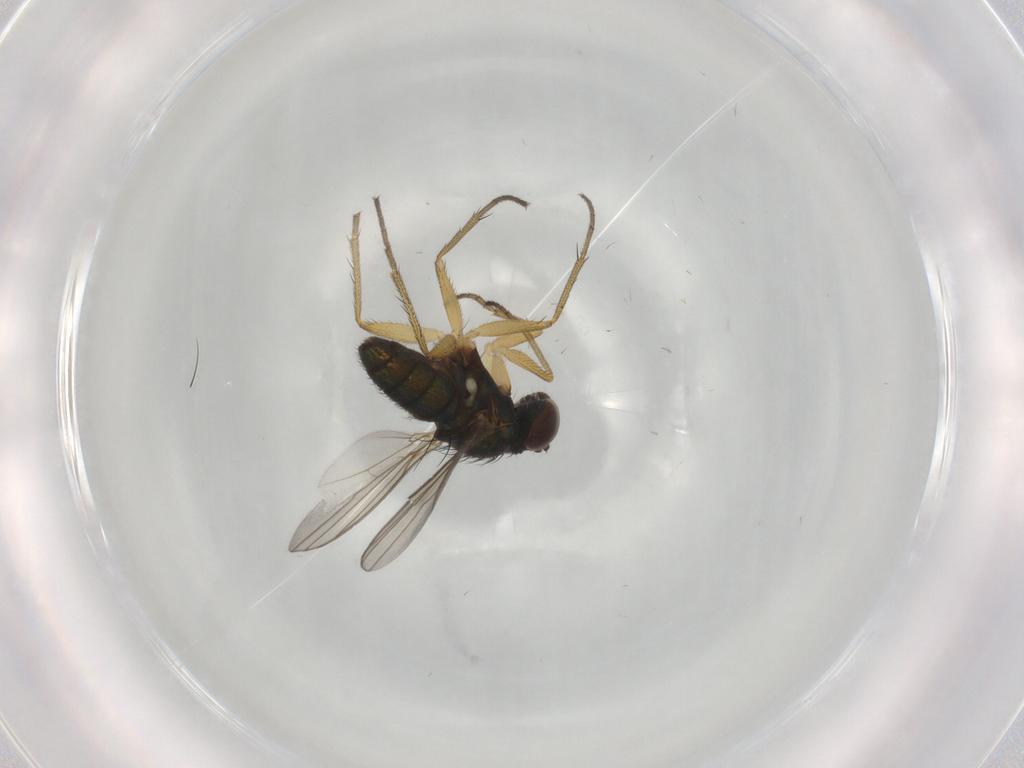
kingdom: Animalia
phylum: Arthropoda
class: Insecta
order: Diptera
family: Dolichopodidae
